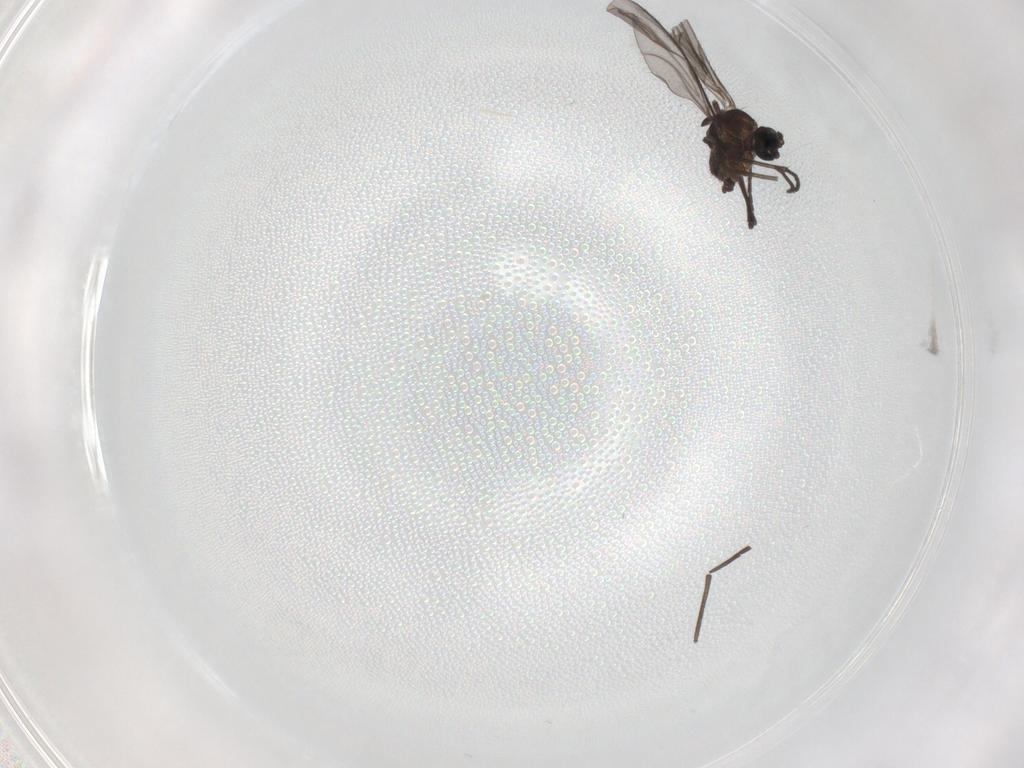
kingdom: Animalia
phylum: Arthropoda
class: Insecta
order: Diptera
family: Sciaridae
